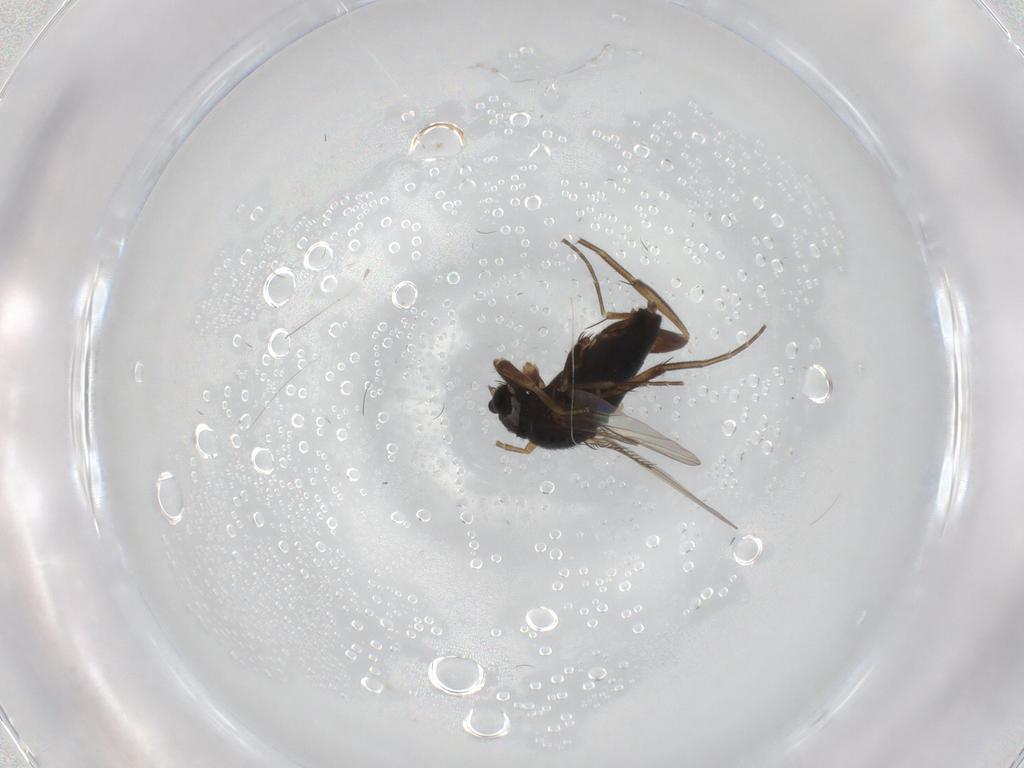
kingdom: Animalia
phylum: Arthropoda
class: Insecta
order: Diptera
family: Phoridae
